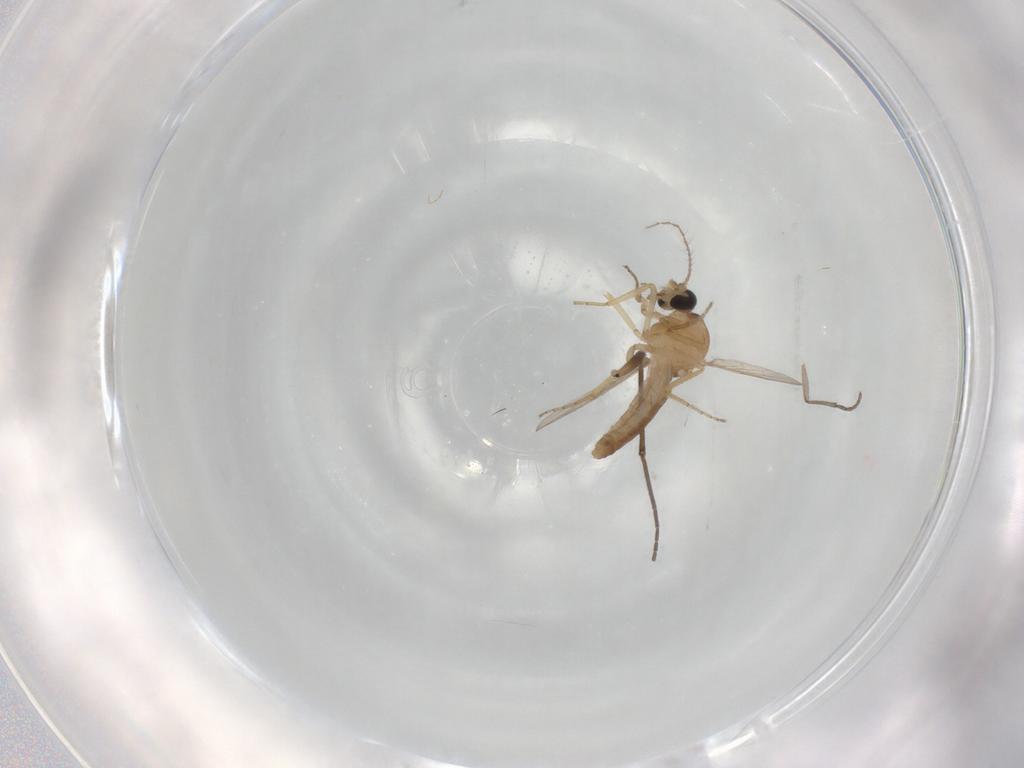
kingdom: Animalia
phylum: Arthropoda
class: Insecta
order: Diptera
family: Ceratopogonidae
